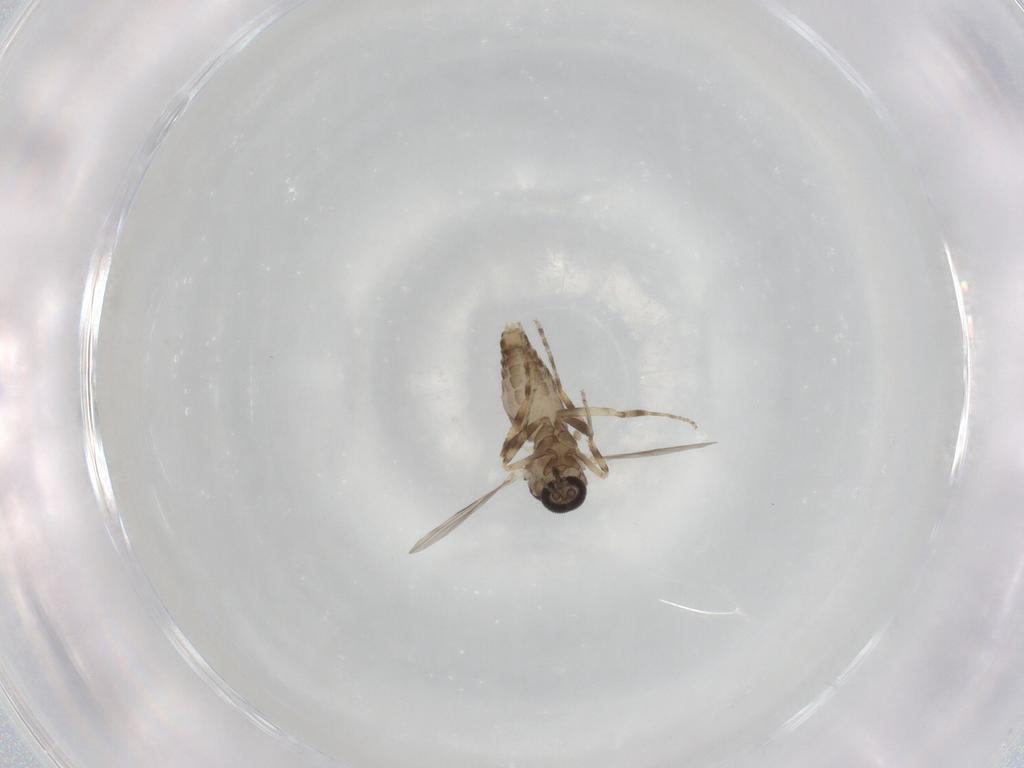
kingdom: Animalia
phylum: Arthropoda
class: Insecta
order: Diptera
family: Ceratopogonidae
